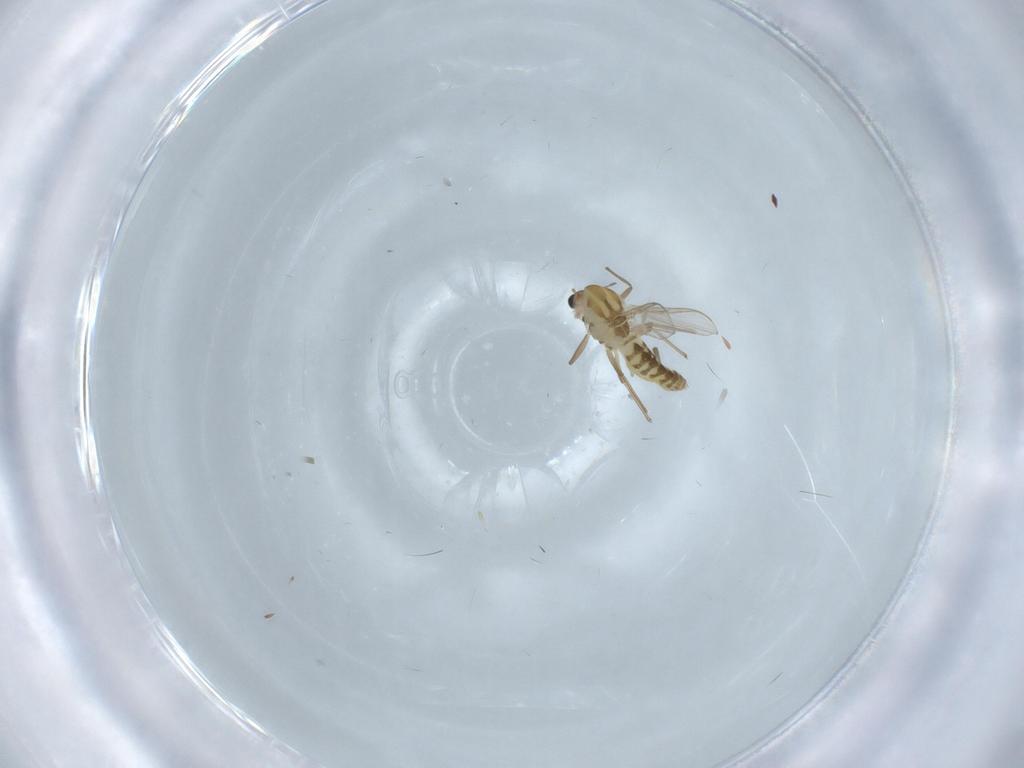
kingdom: Animalia
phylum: Arthropoda
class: Insecta
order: Diptera
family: Chironomidae
